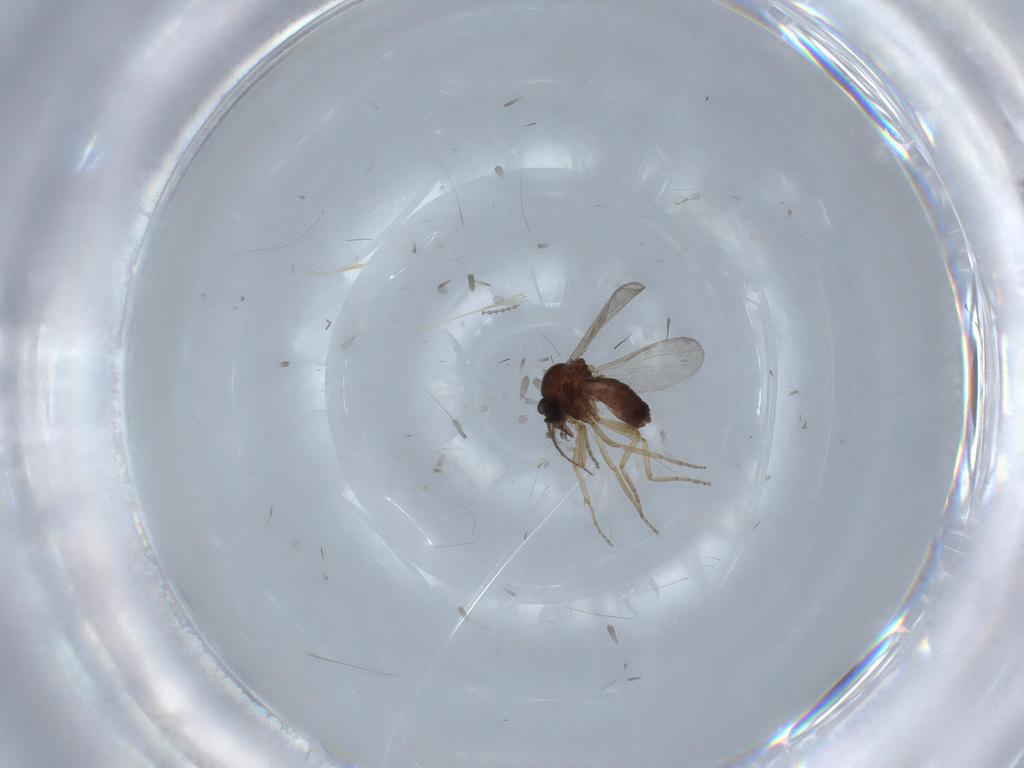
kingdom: Animalia
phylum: Arthropoda
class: Insecta
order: Diptera
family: Cecidomyiidae
